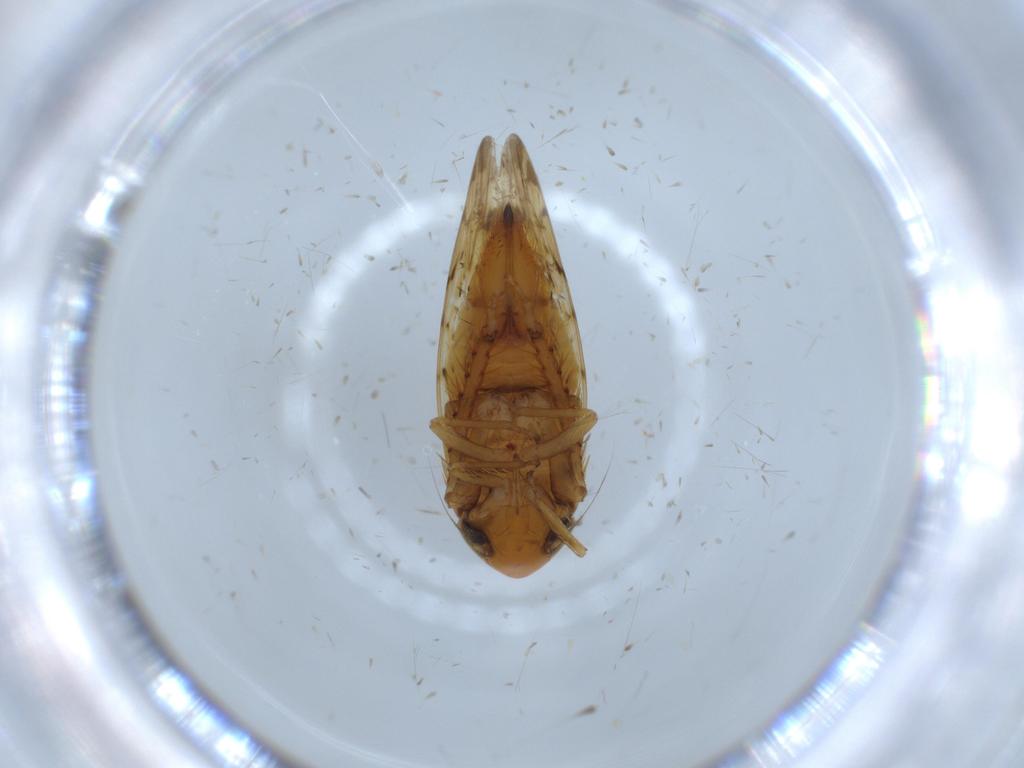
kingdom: Animalia
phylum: Arthropoda
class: Insecta
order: Hemiptera
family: Cicadellidae
